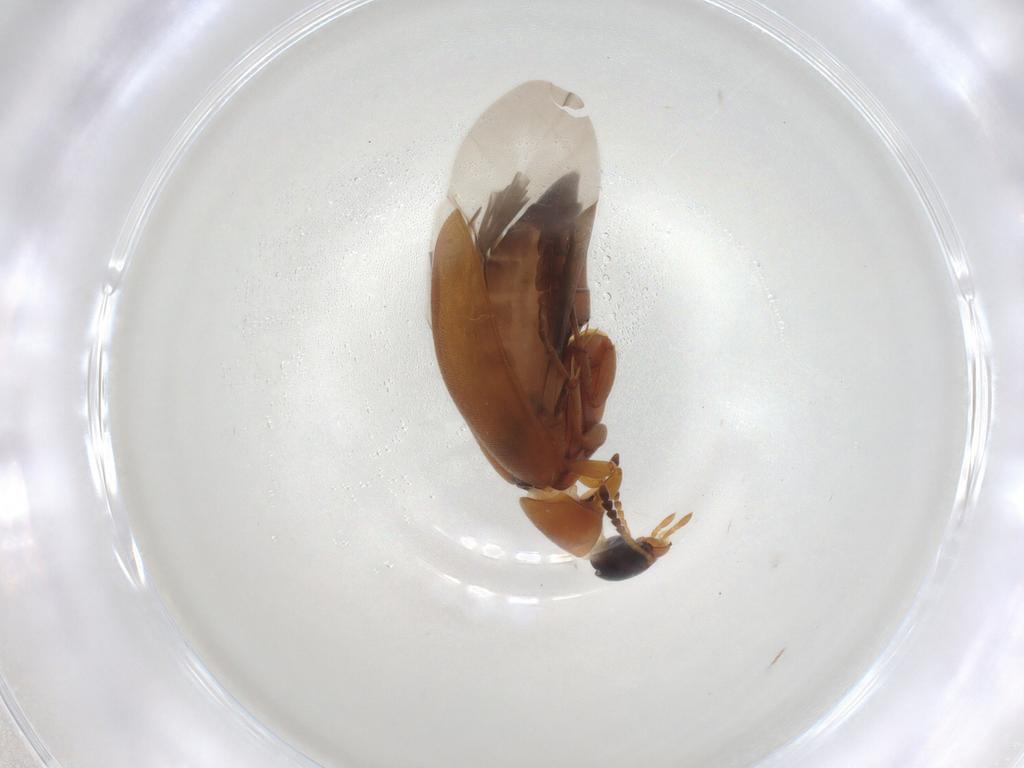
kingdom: Animalia
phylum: Arthropoda
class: Insecta
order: Coleoptera
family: Scraptiidae
